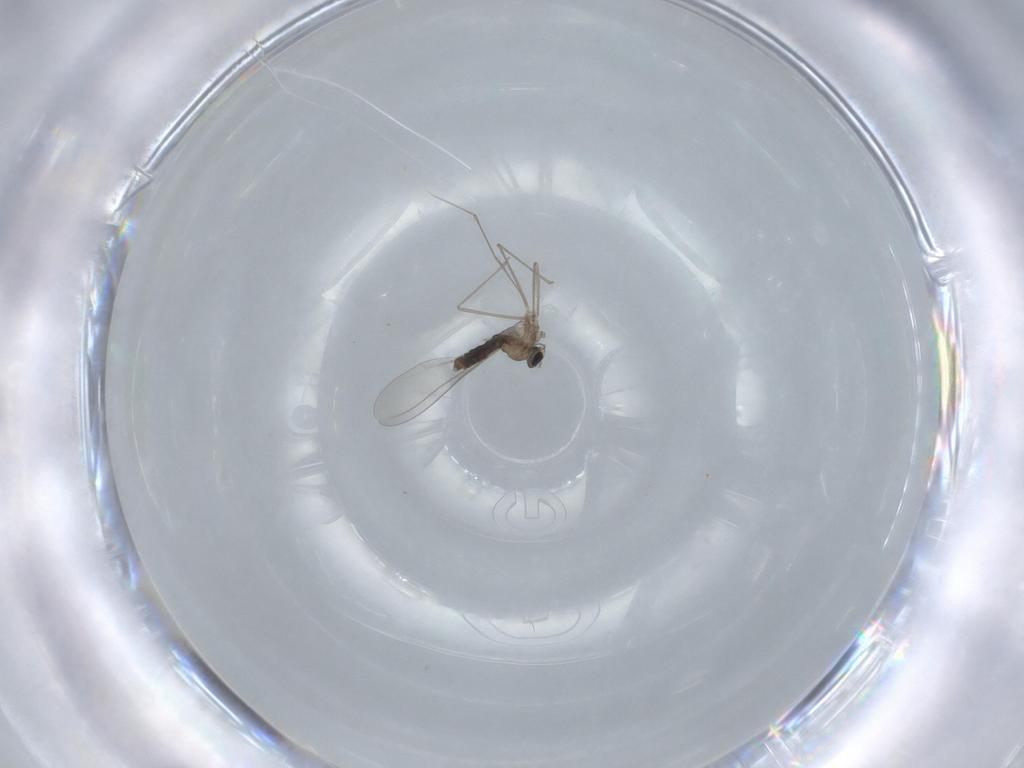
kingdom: Animalia
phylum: Arthropoda
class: Insecta
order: Diptera
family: Cecidomyiidae
